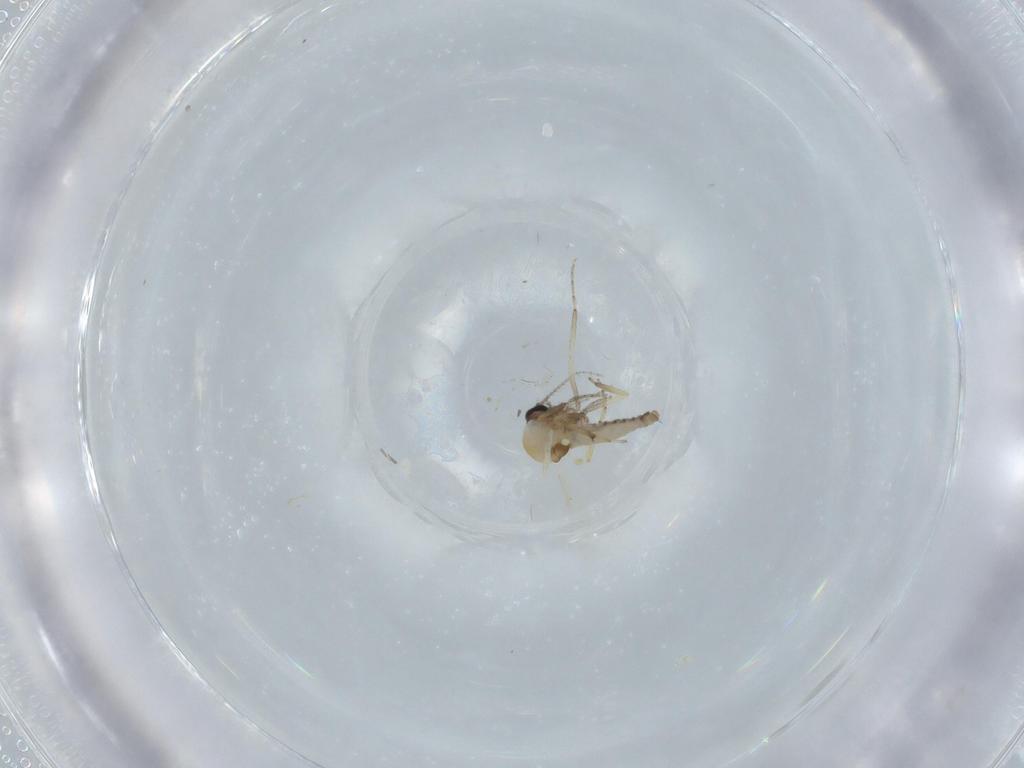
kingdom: Animalia
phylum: Arthropoda
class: Insecta
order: Diptera
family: Ceratopogonidae
